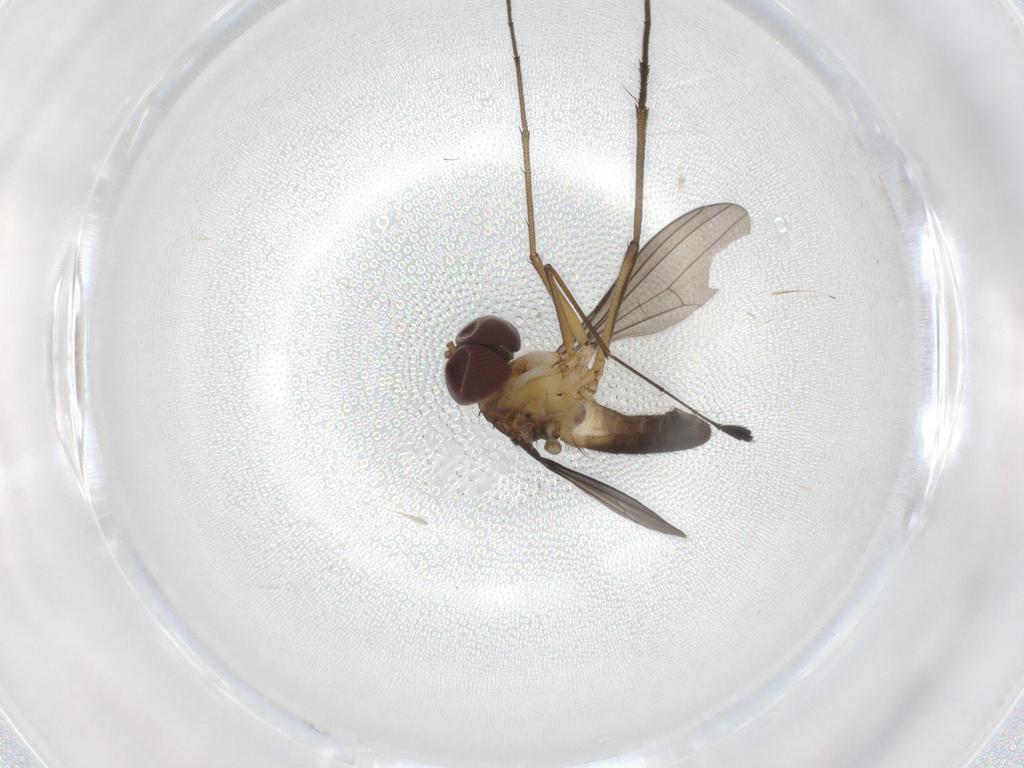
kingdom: Animalia
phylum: Arthropoda
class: Insecta
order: Diptera
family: Dolichopodidae
